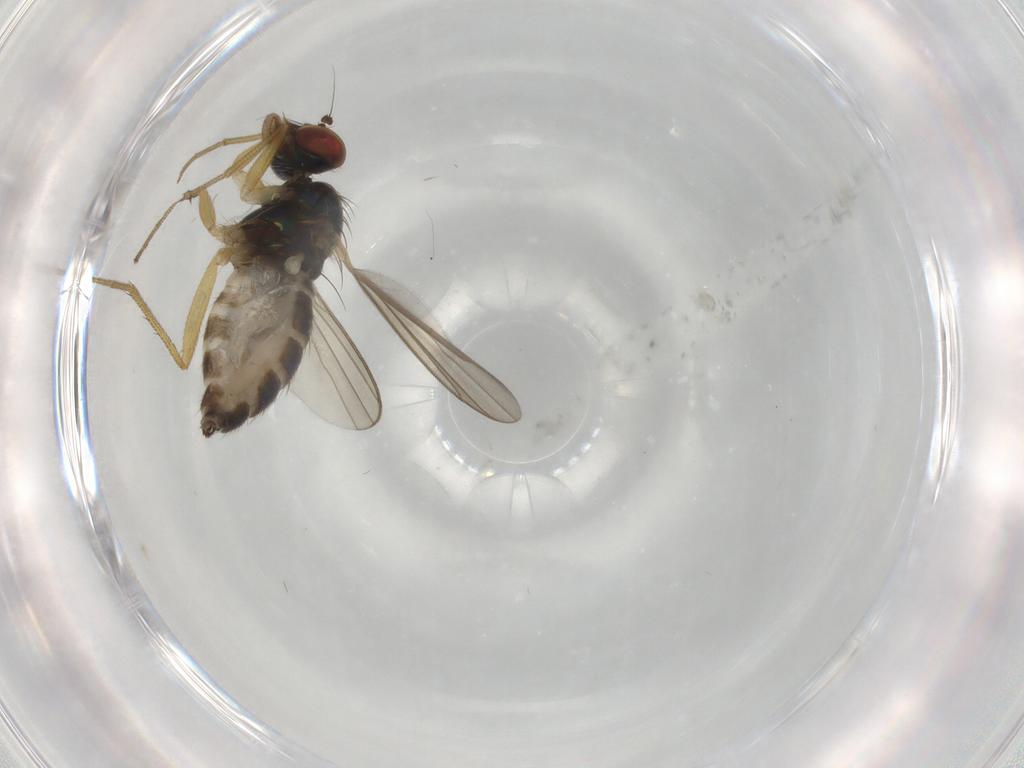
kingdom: Animalia
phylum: Arthropoda
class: Insecta
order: Diptera
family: Dolichopodidae
